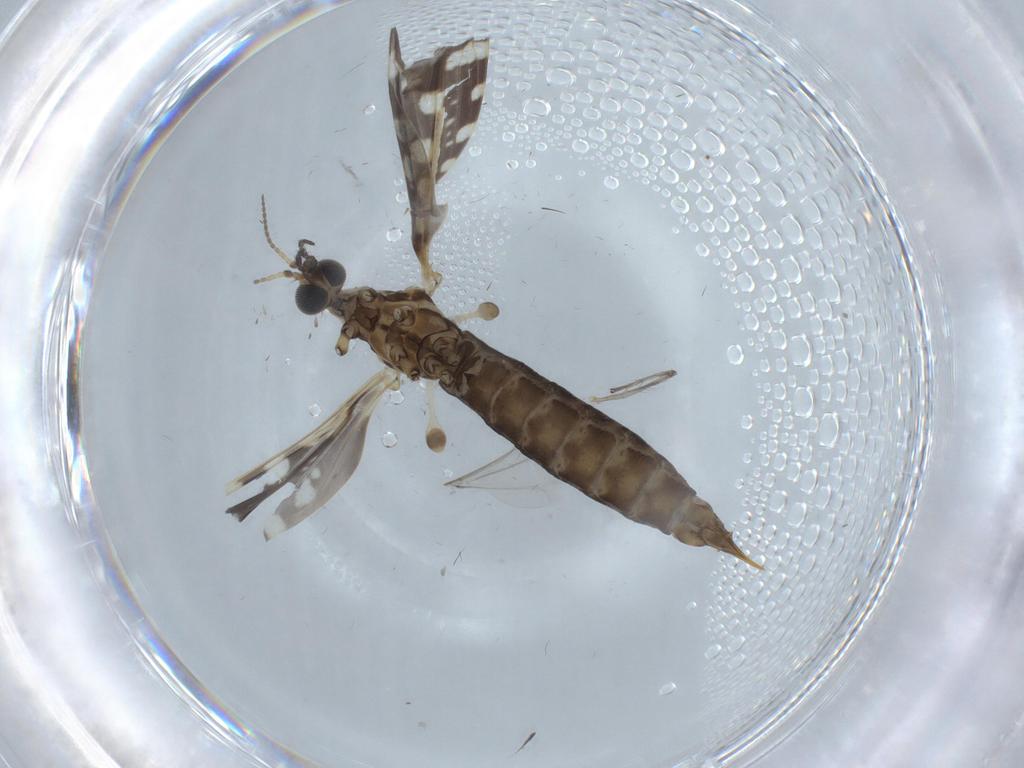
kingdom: Animalia
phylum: Arthropoda
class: Insecta
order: Diptera
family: Limoniidae
